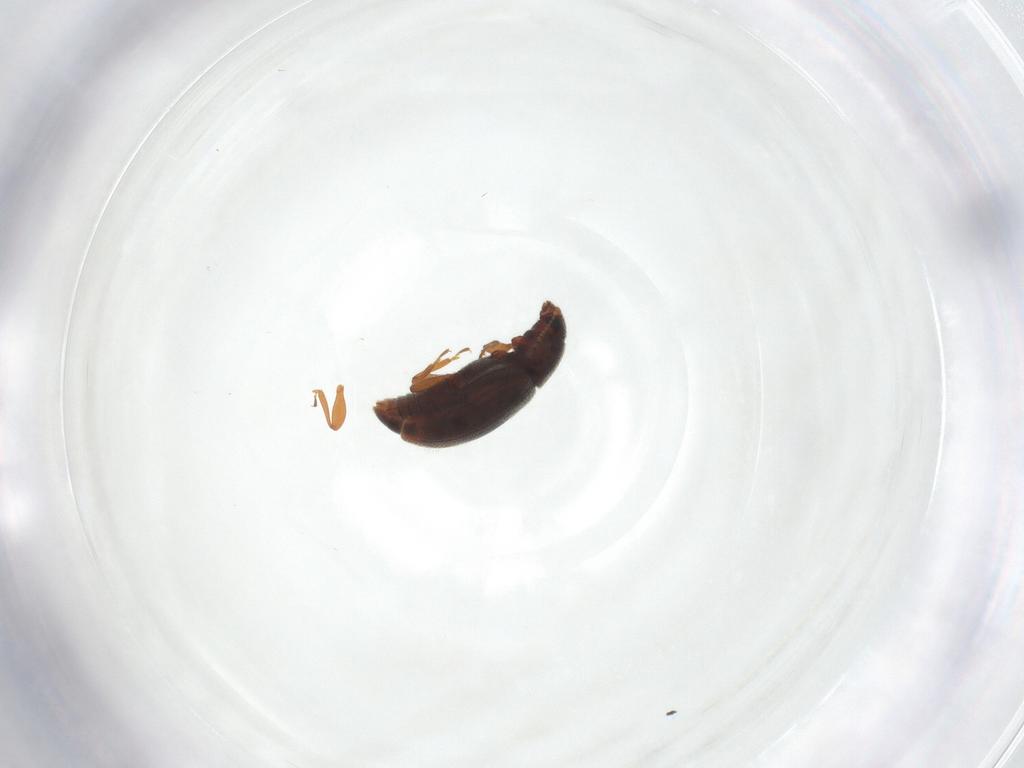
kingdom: Animalia
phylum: Arthropoda
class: Insecta
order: Coleoptera
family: Latridiidae
